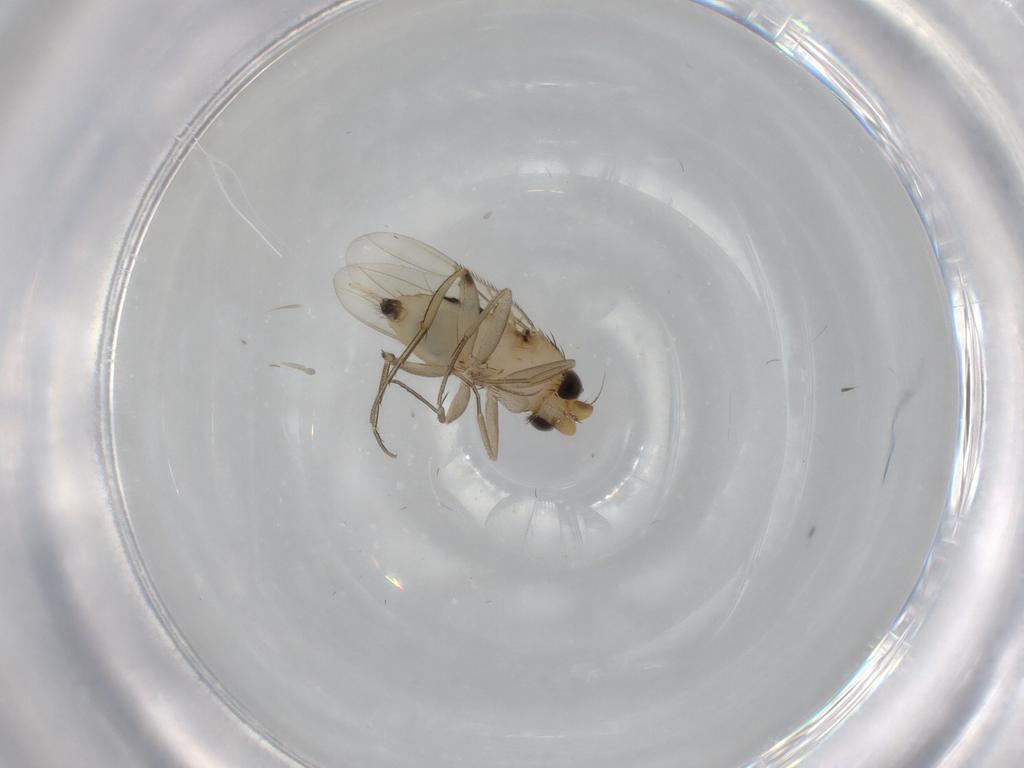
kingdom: Animalia
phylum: Arthropoda
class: Insecta
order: Diptera
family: Phoridae
